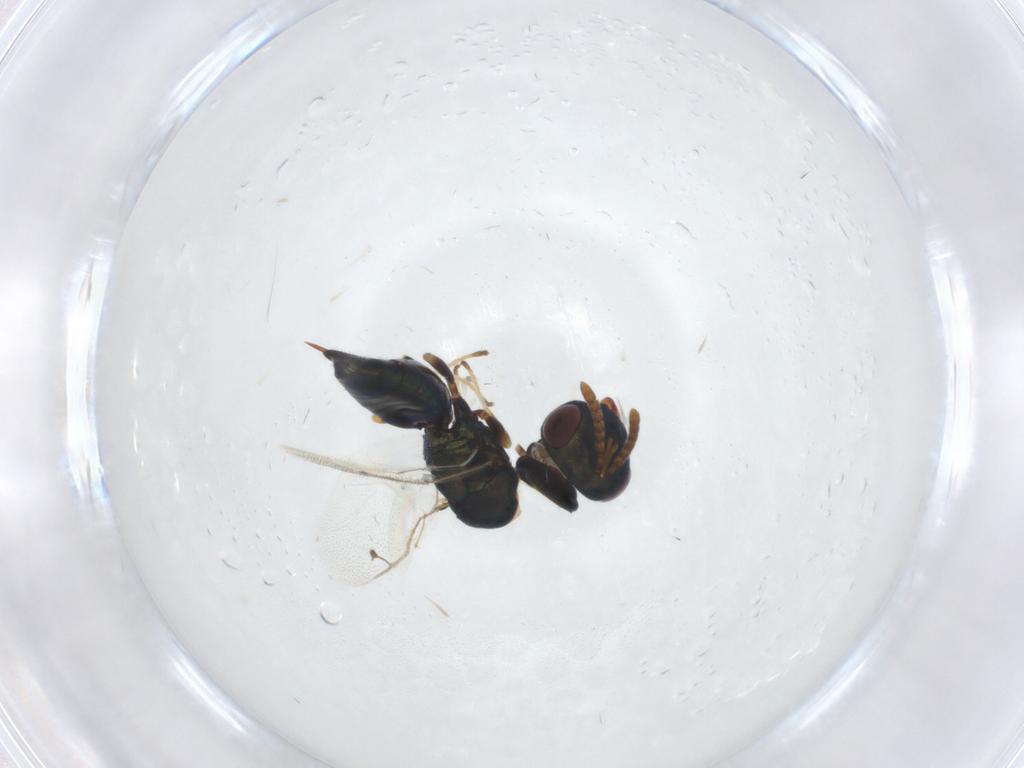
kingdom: Animalia
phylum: Arthropoda
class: Insecta
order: Hymenoptera
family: Pteromalidae
